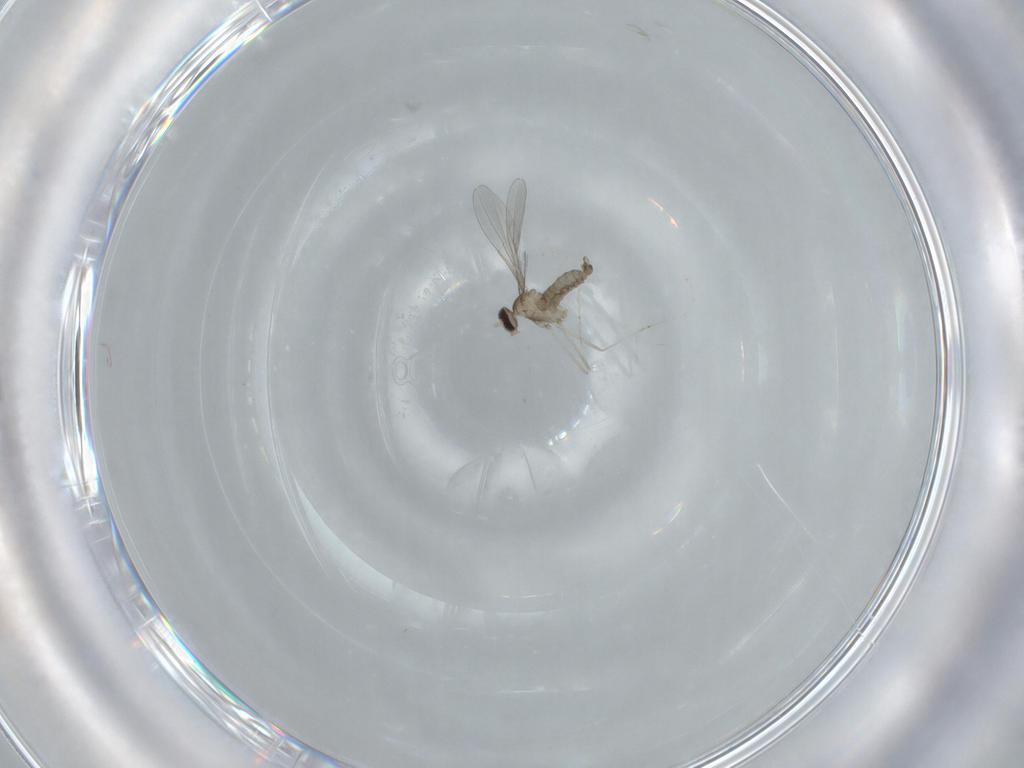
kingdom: Animalia
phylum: Arthropoda
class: Insecta
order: Diptera
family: Cecidomyiidae
